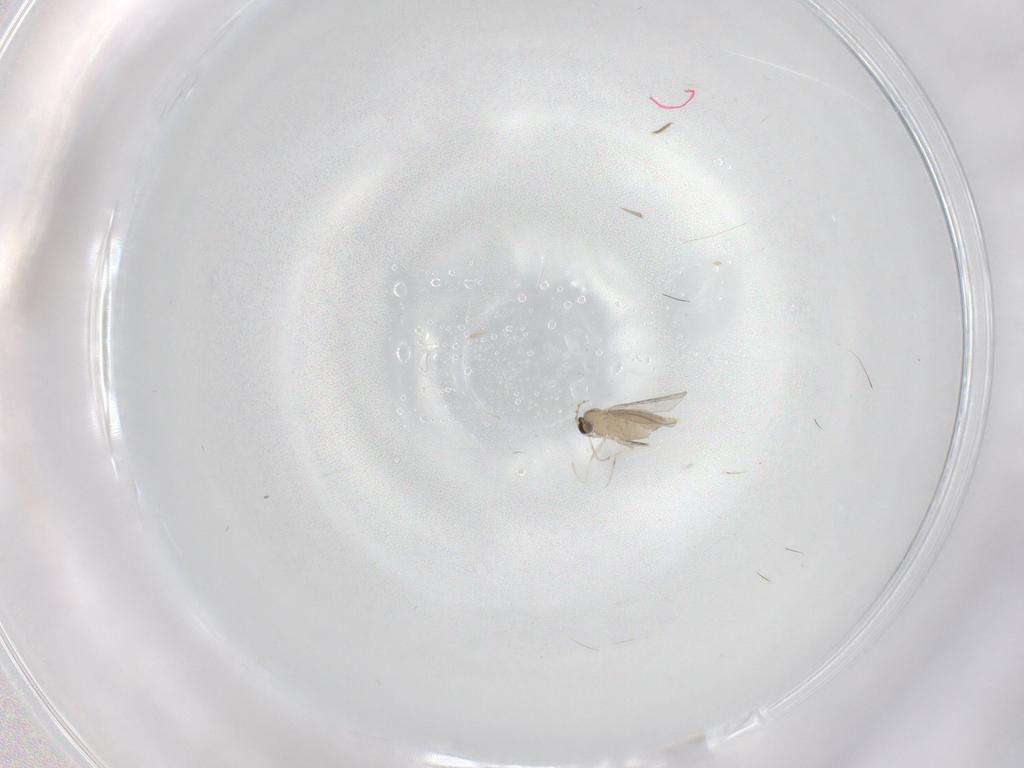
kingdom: Animalia
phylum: Arthropoda
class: Insecta
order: Diptera
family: Cecidomyiidae
